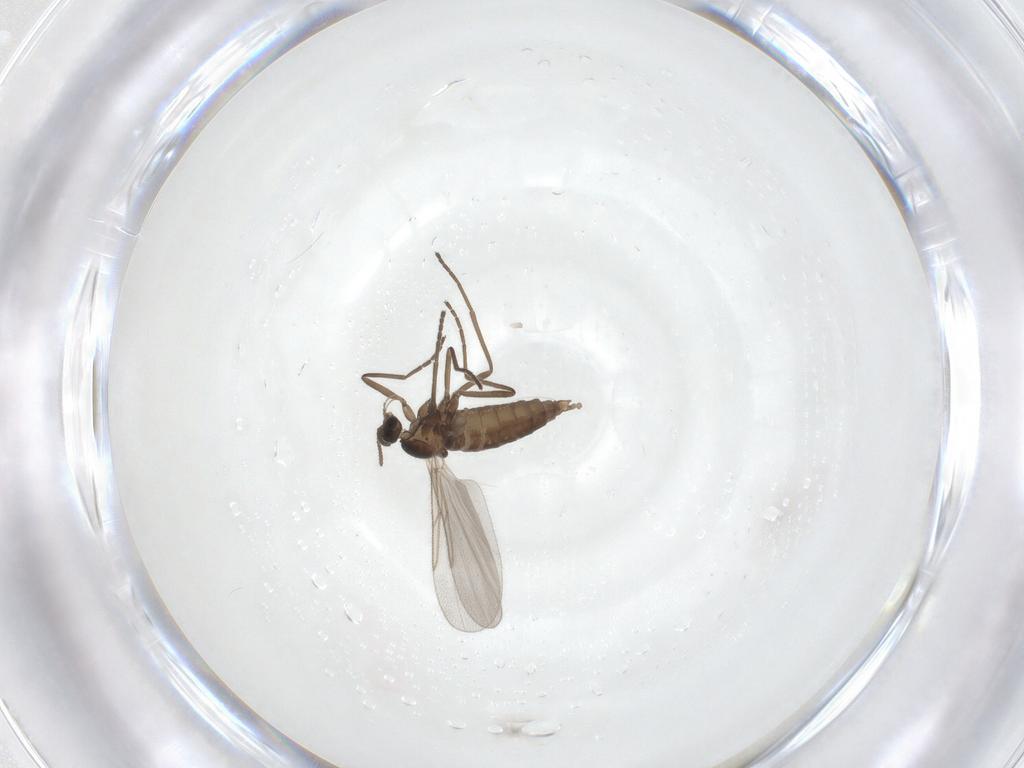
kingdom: Animalia
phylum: Arthropoda
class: Insecta
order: Diptera
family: Cecidomyiidae
